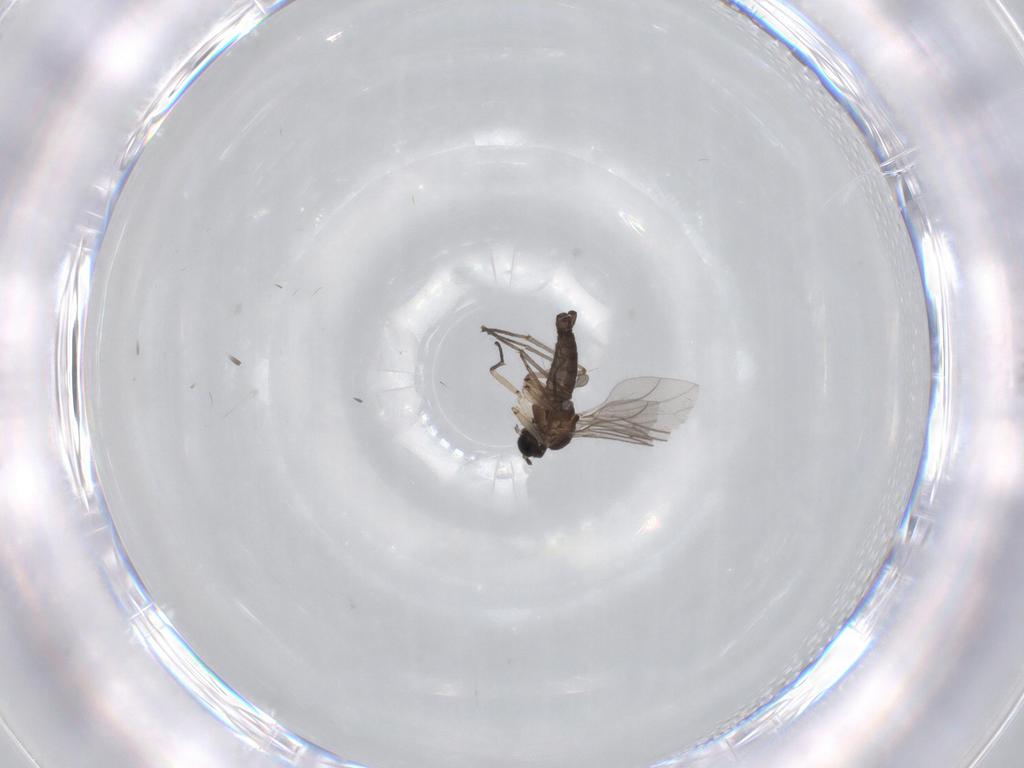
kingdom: Animalia
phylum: Arthropoda
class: Insecta
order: Diptera
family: Sciaridae
